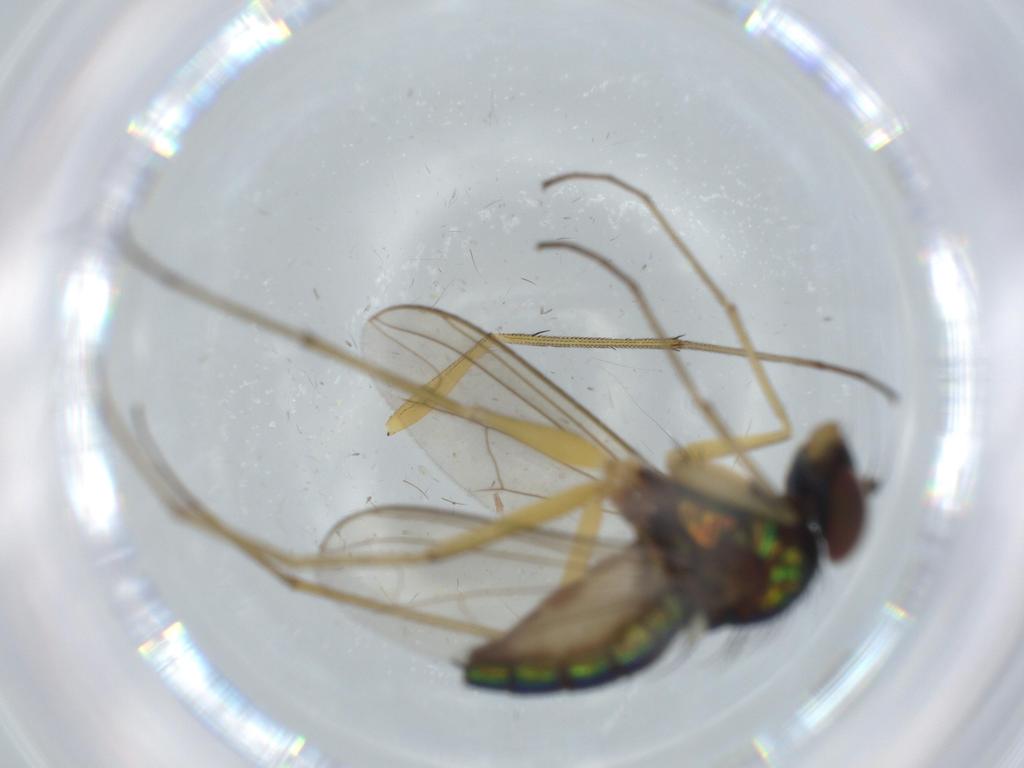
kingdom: Animalia
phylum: Arthropoda
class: Insecta
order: Diptera
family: Dolichopodidae
